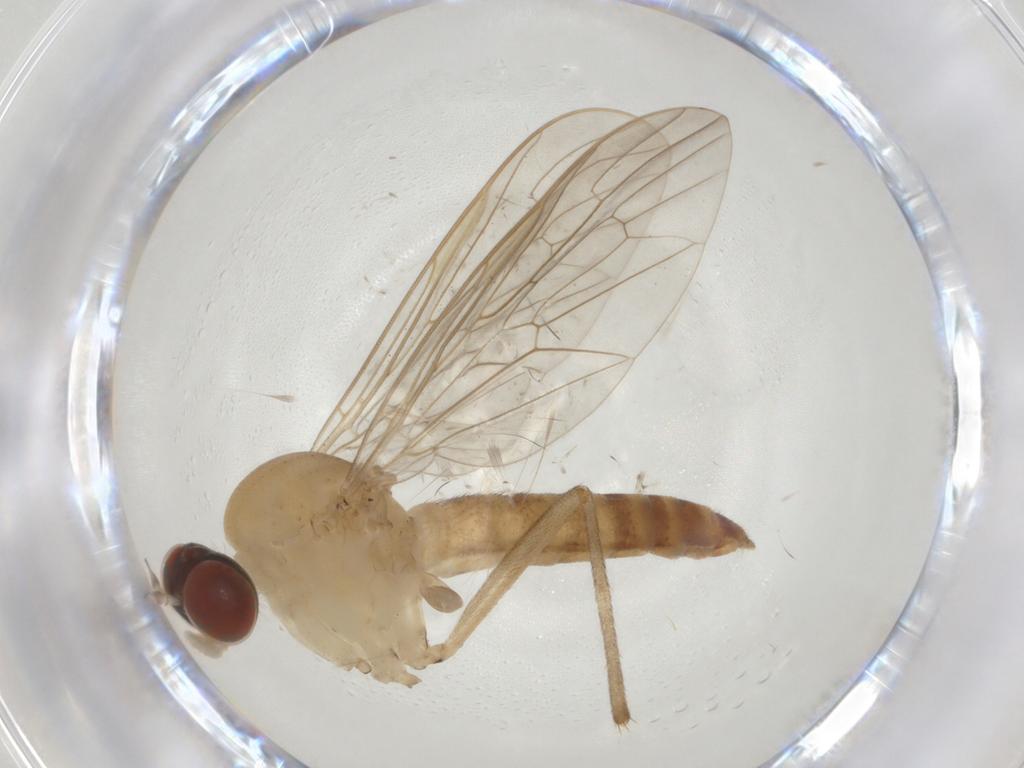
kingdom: Animalia
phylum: Arthropoda
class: Insecta
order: Diptera
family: Apsilocephalidae
